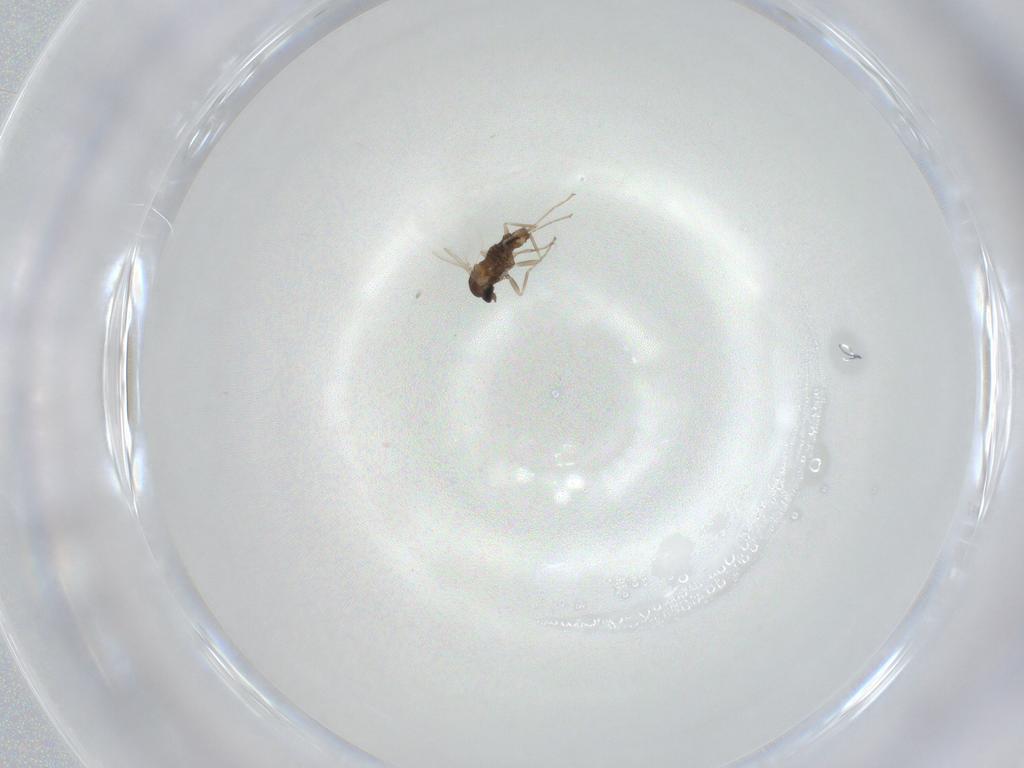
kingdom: Animalia
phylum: Arthropoda
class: Insecta
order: Diptera
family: Cecidomyiidae
